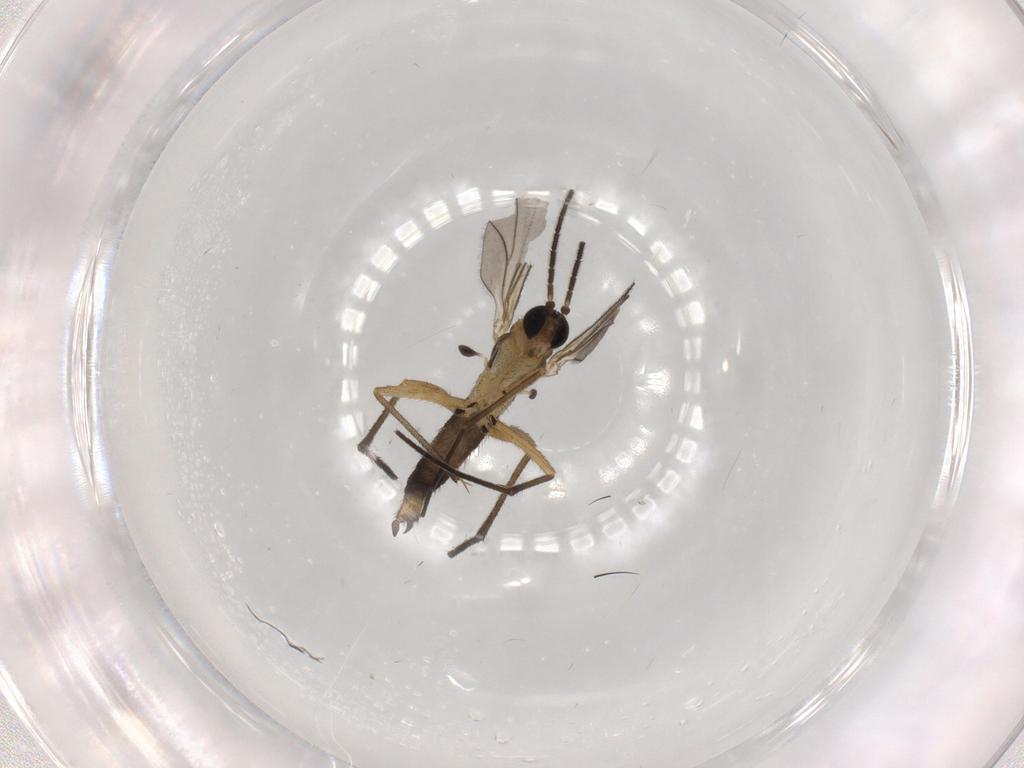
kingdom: Animalia
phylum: Arthropoda
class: Insecta
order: Diptera
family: Sciaridae
